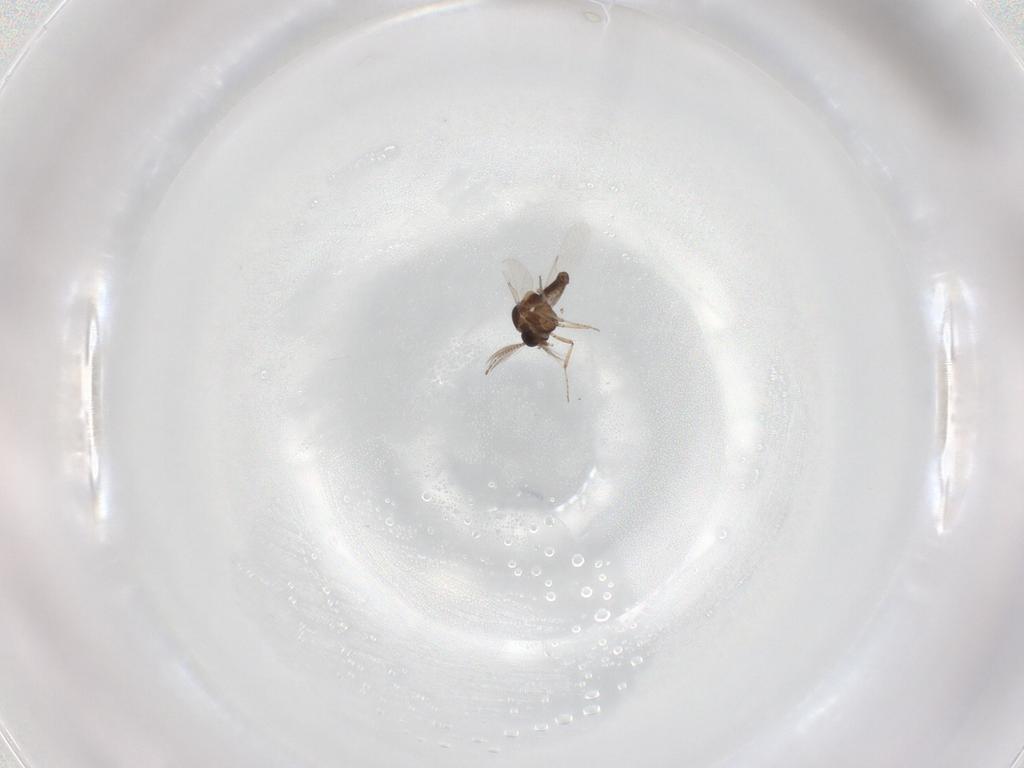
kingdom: Animalia
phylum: Arthropoda
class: Insecta
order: Diptera
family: Ceratopogonidae
